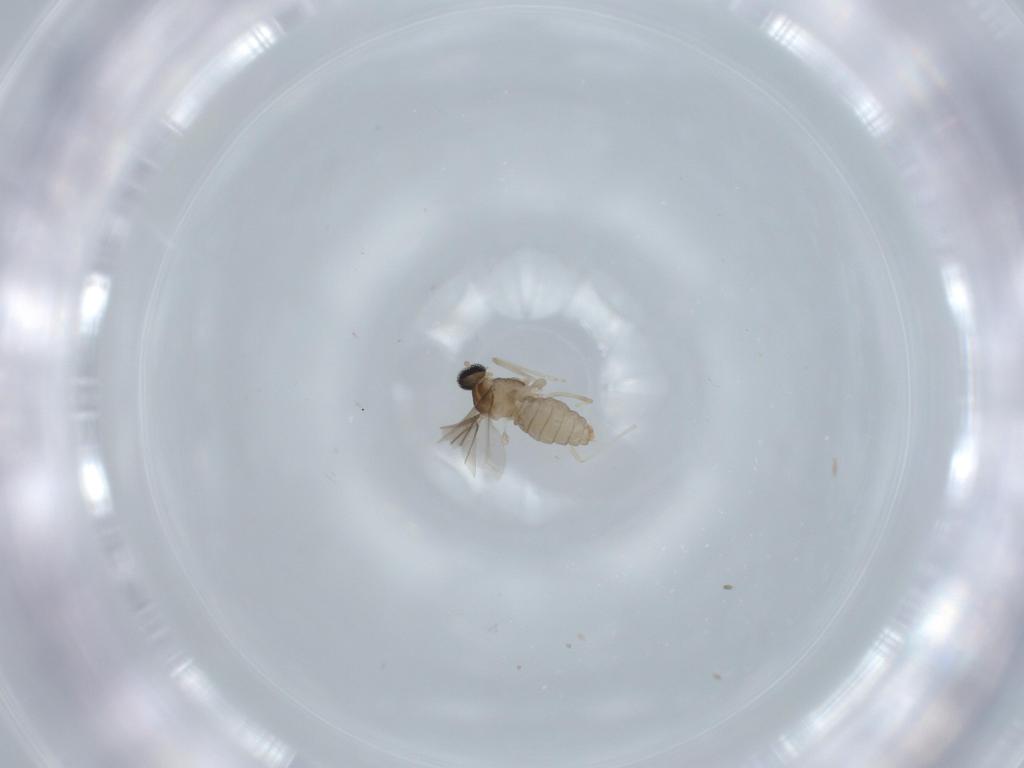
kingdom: Animalia
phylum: Arthropoda
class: Insecta
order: Diptera
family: Cecidomyiidae
